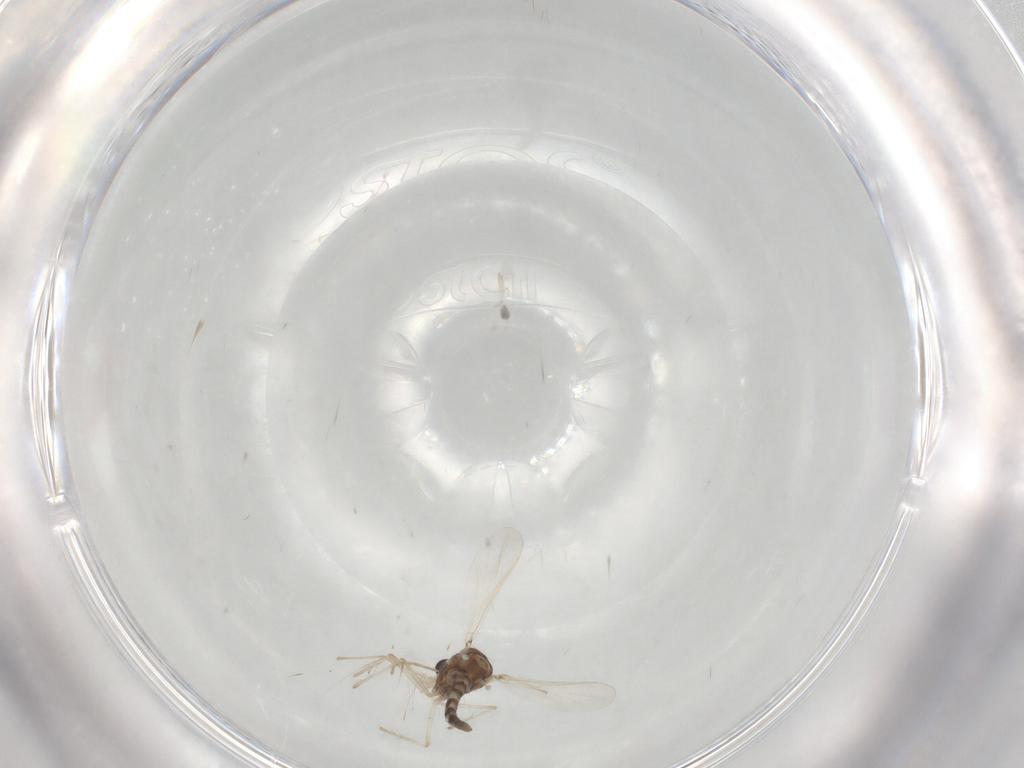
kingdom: Animalia
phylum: Arthropoda
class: Insecta
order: Diptera
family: Chironomidae
